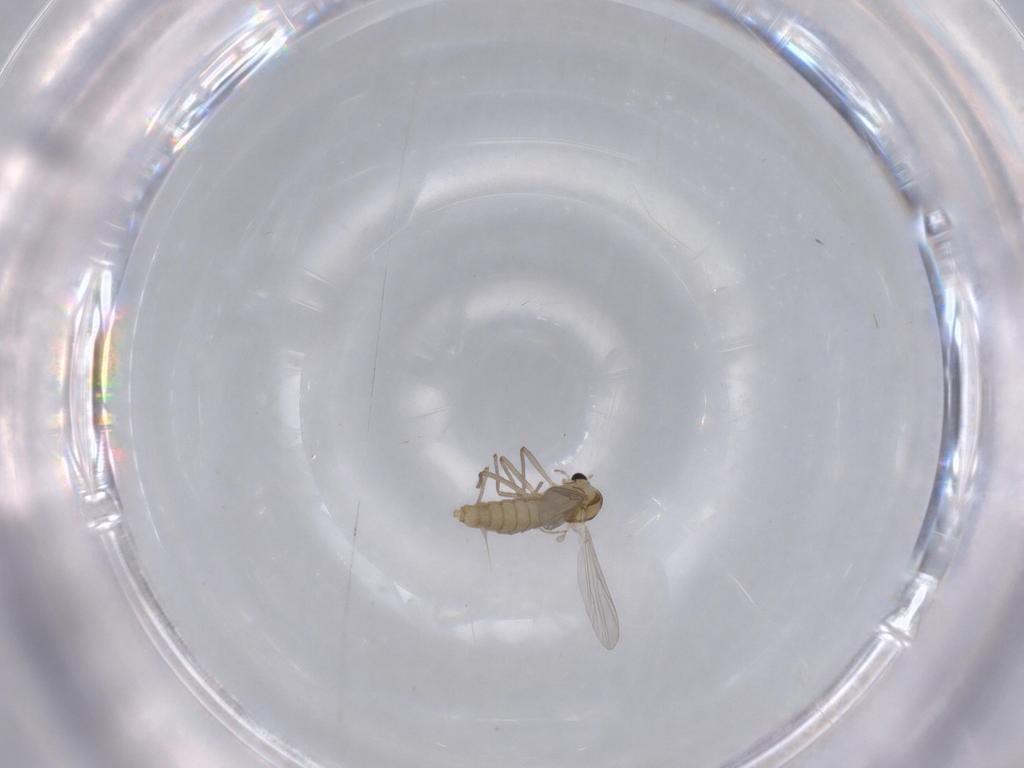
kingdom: Animalia
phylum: Arthropoda
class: Insecta
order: Diptera
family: Chironomidae
